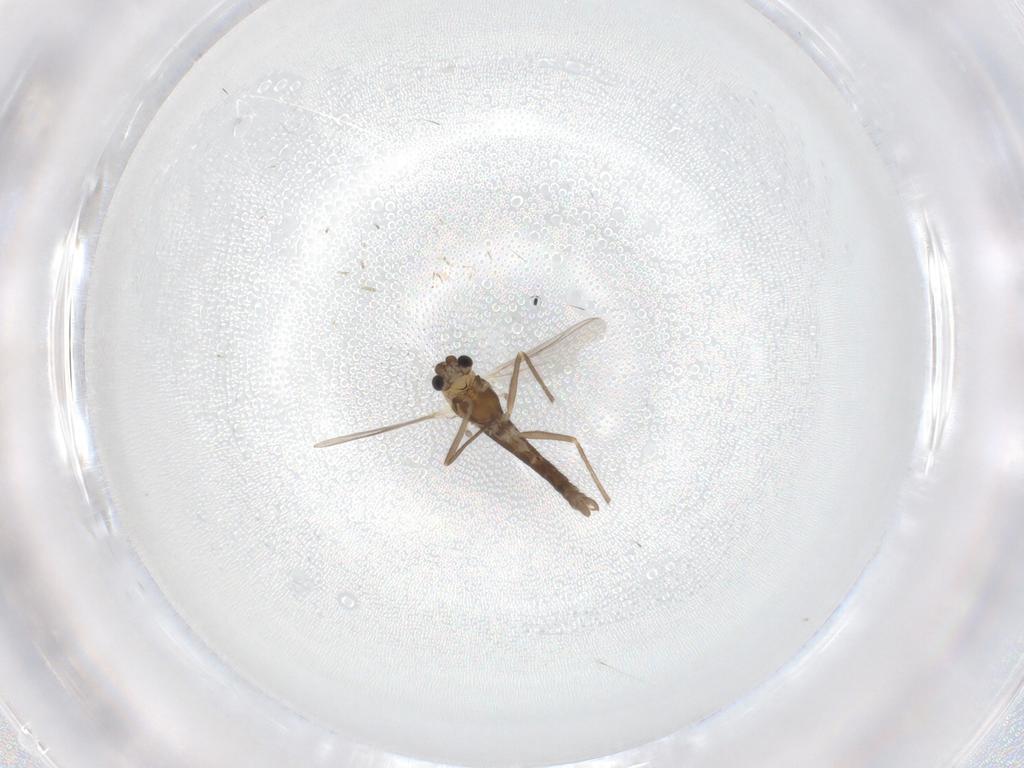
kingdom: Animalia
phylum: Arthropoda
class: Insecta
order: Diptera
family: Chironomidae
